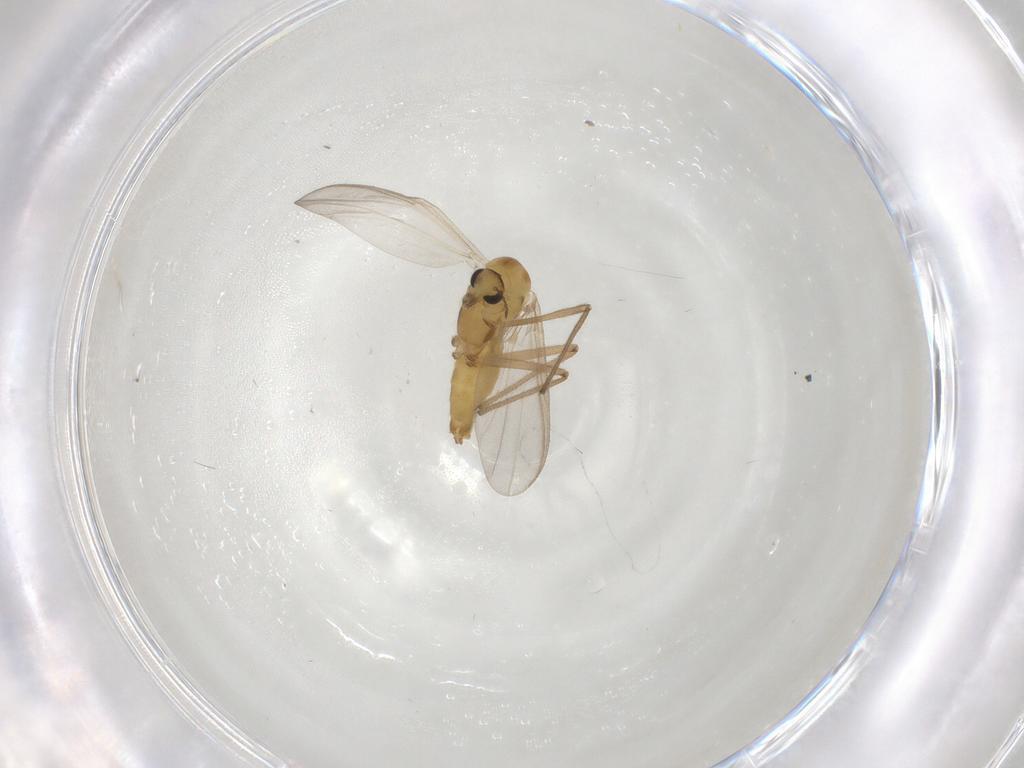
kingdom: Animalia
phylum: Arthropoda
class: Insecta
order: Diptera
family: Chironomidae
